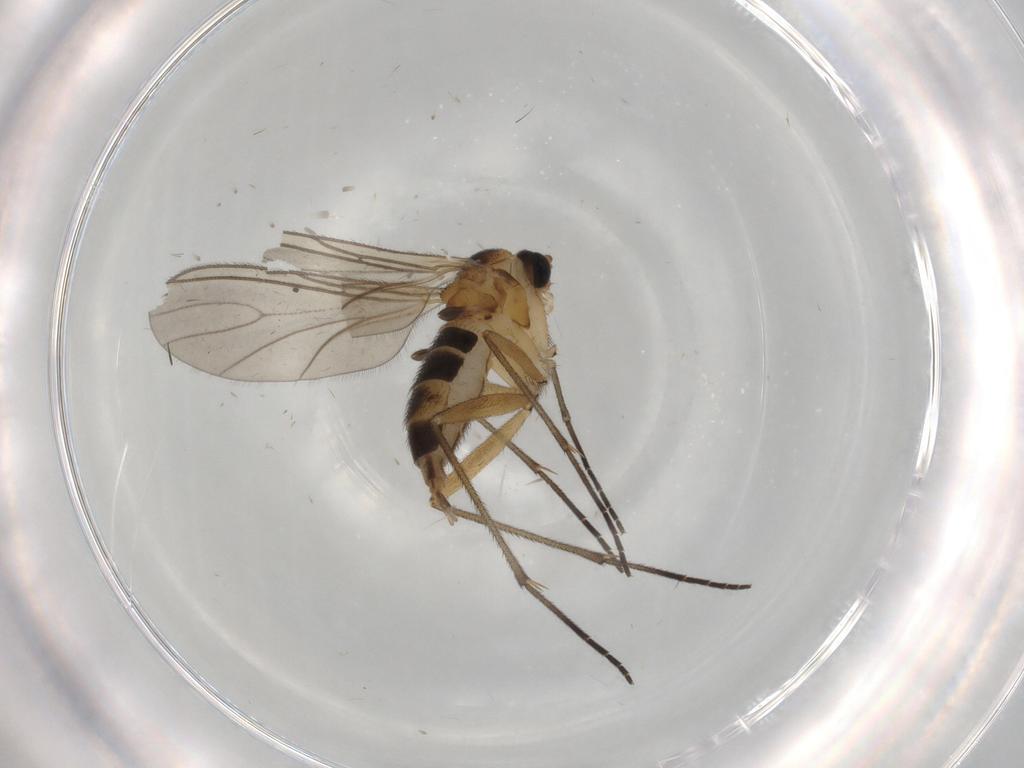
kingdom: Animalia
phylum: Arthropoda
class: Insecta
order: Diptera
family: Sciaridae
